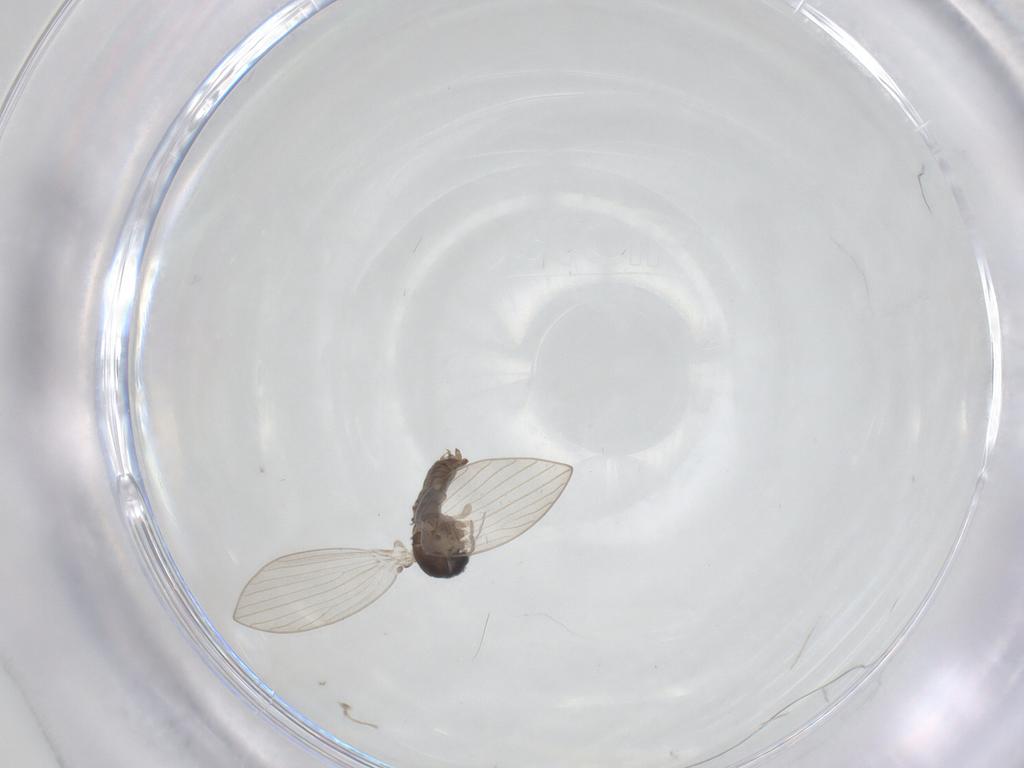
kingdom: Animalia
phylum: Arthropoda
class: Insecta
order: Diptera
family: Psychodidae
